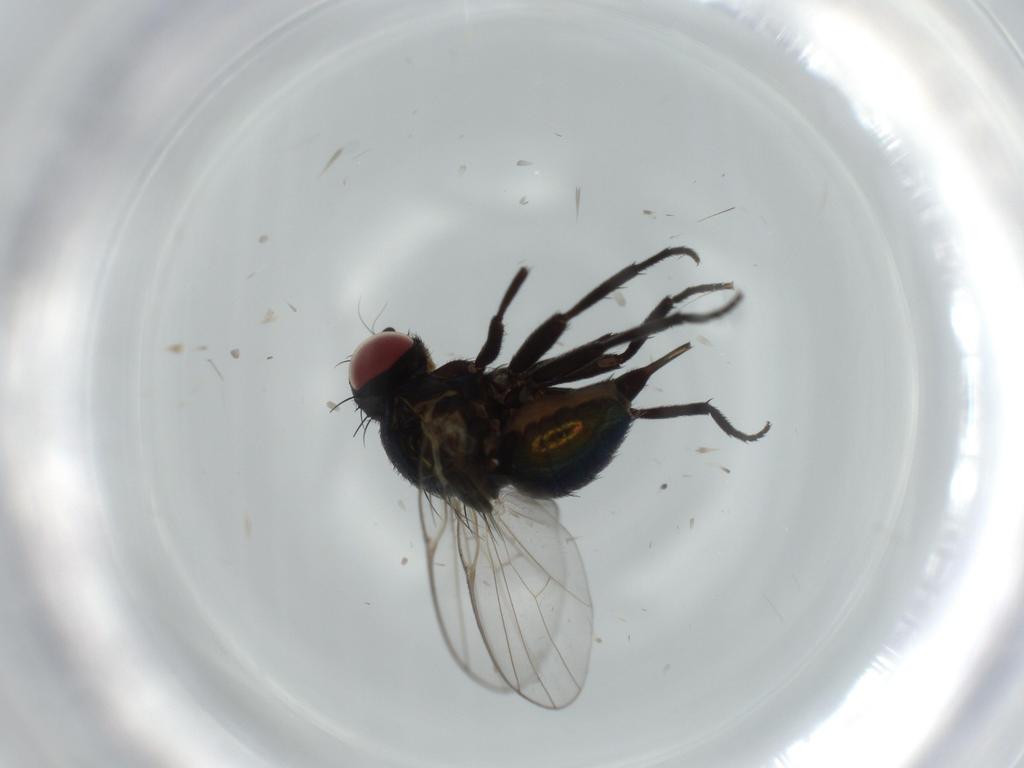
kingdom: Animalia
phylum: Arthropoda
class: Insecta
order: Diptera
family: Agromyzidae
